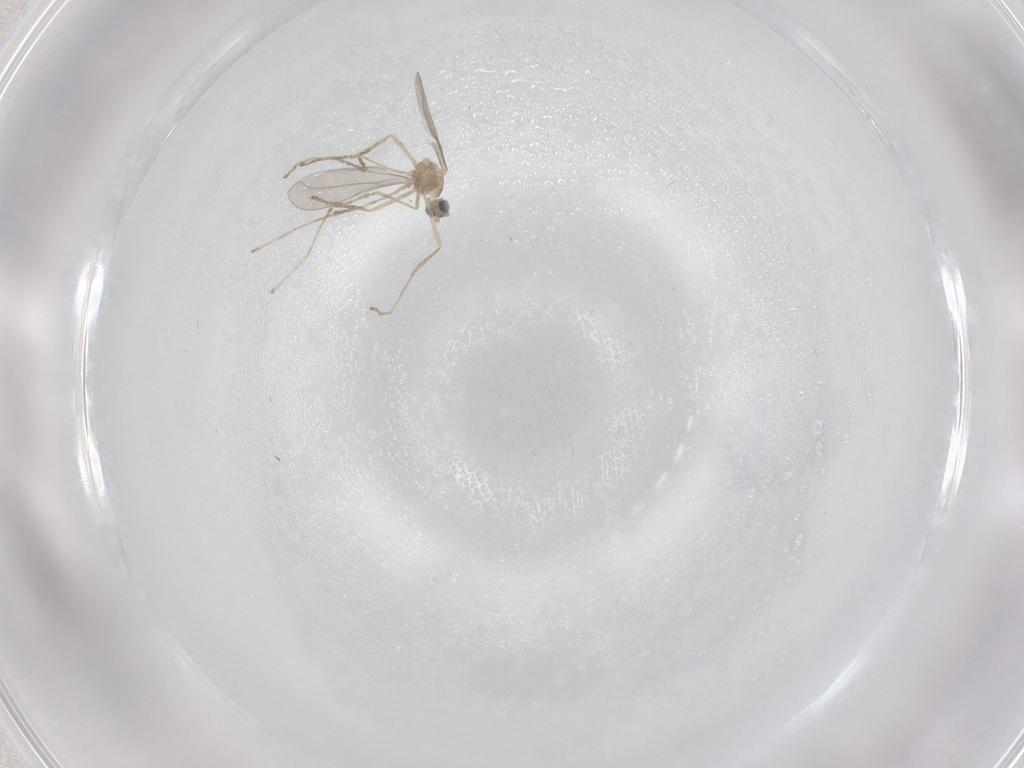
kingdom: Animalia
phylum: Arthropoda
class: Insecta
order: Diptera
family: Cecidomyiidae
